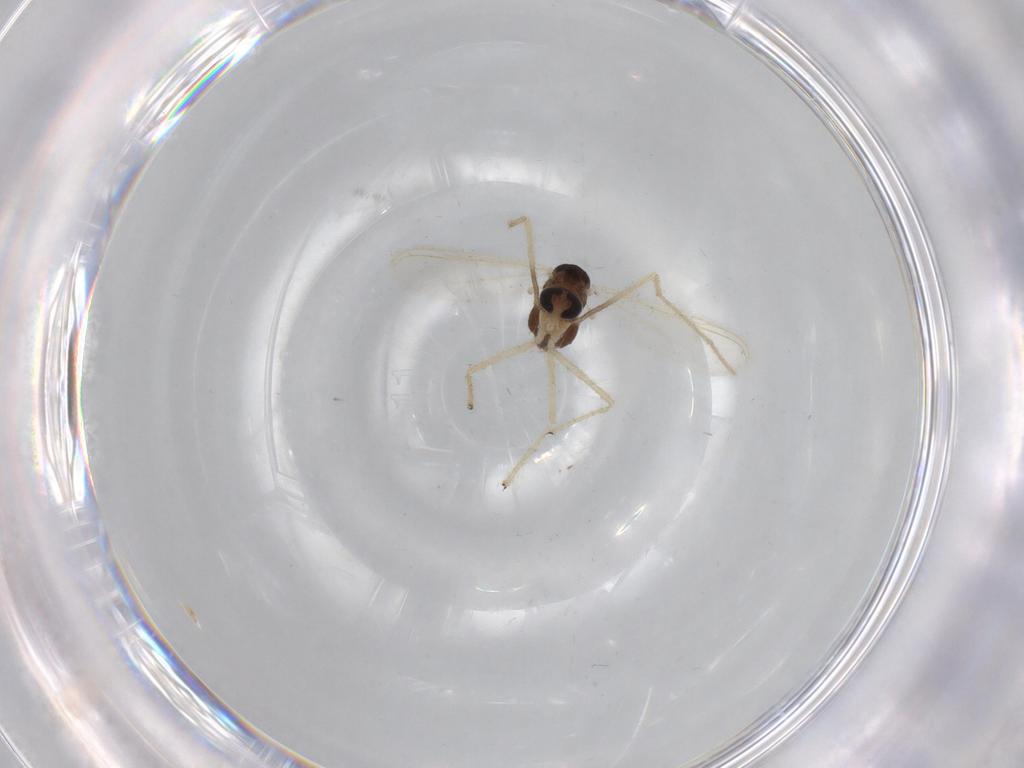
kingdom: Animalia
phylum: Arthropoda
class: Insecta
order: Diptera
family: Chironomidae
